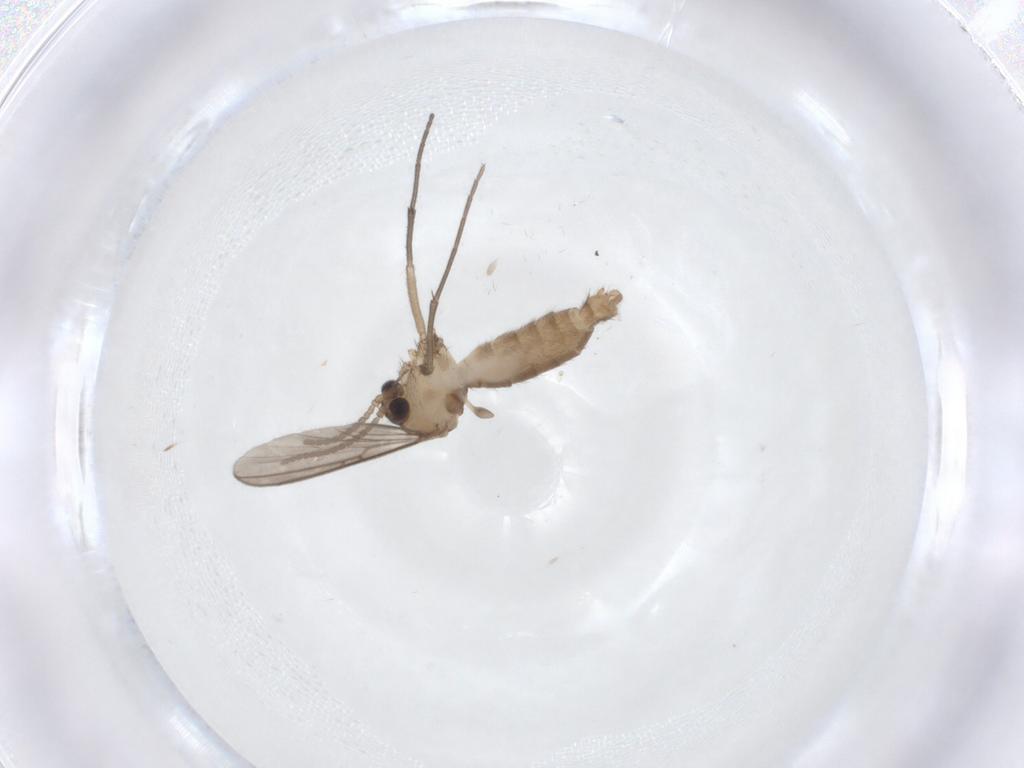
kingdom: Animalia
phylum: Arthropoda
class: Insecta
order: Diptera
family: Mycetophilidae
